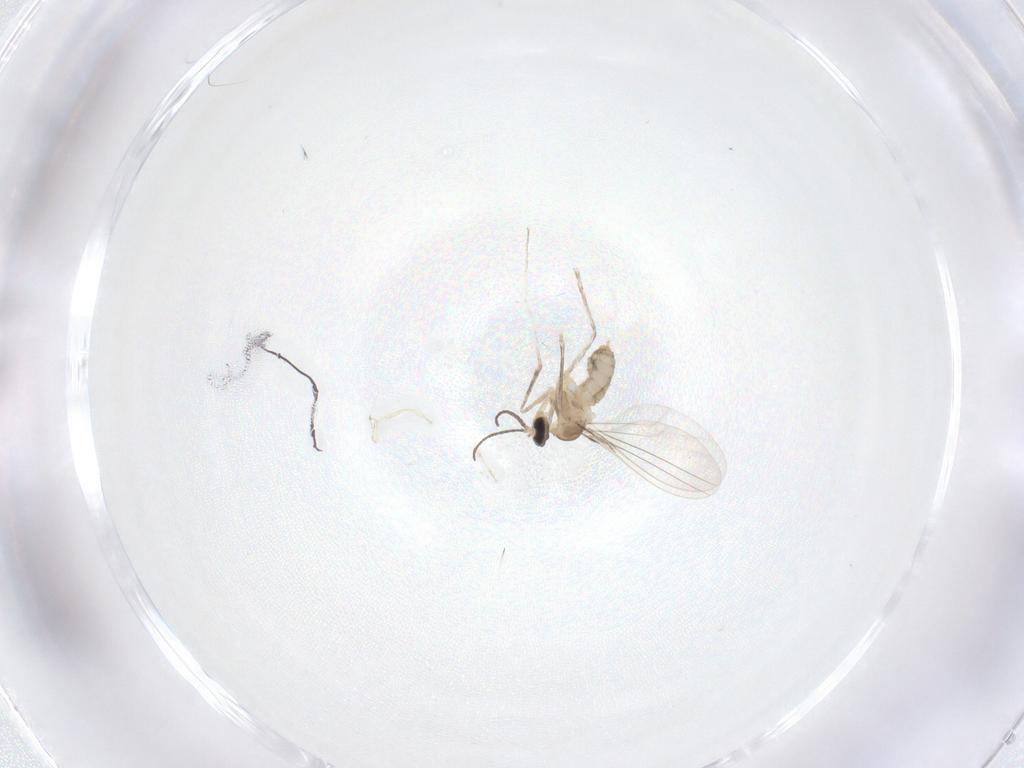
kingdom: Animalia
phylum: Arthropoda
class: Insecta
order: Diptera
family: Cecidomyiidae
